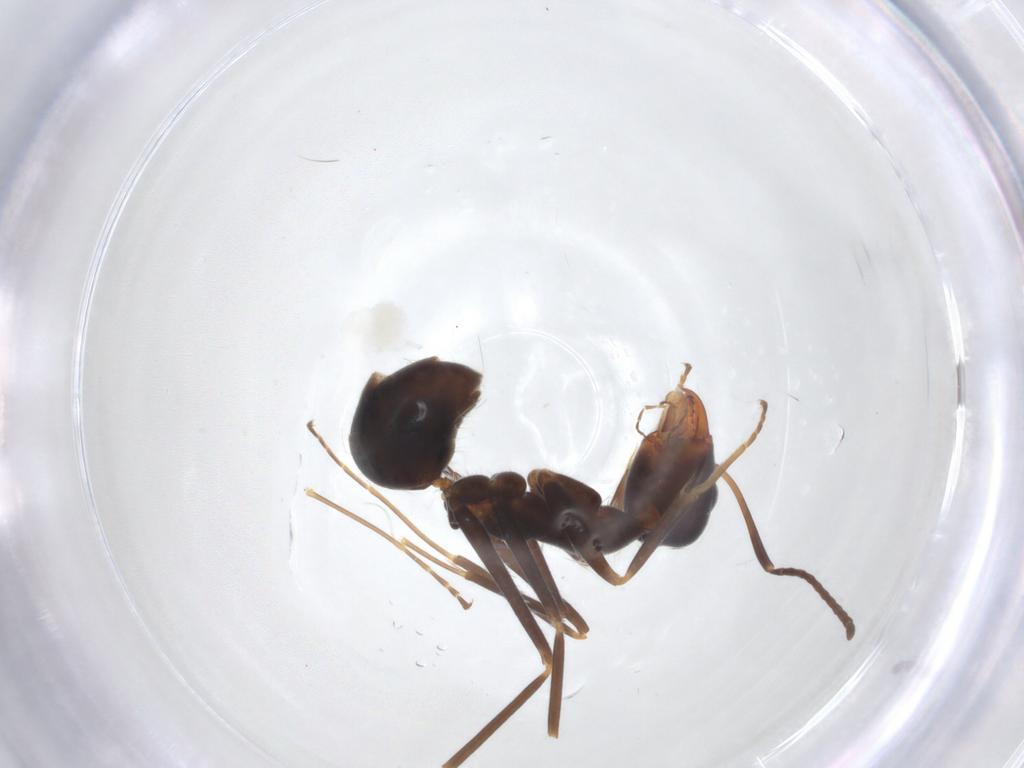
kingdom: Animalia
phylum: Arthropoda
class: Insecta
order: Hymenoptera
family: Formicidae
